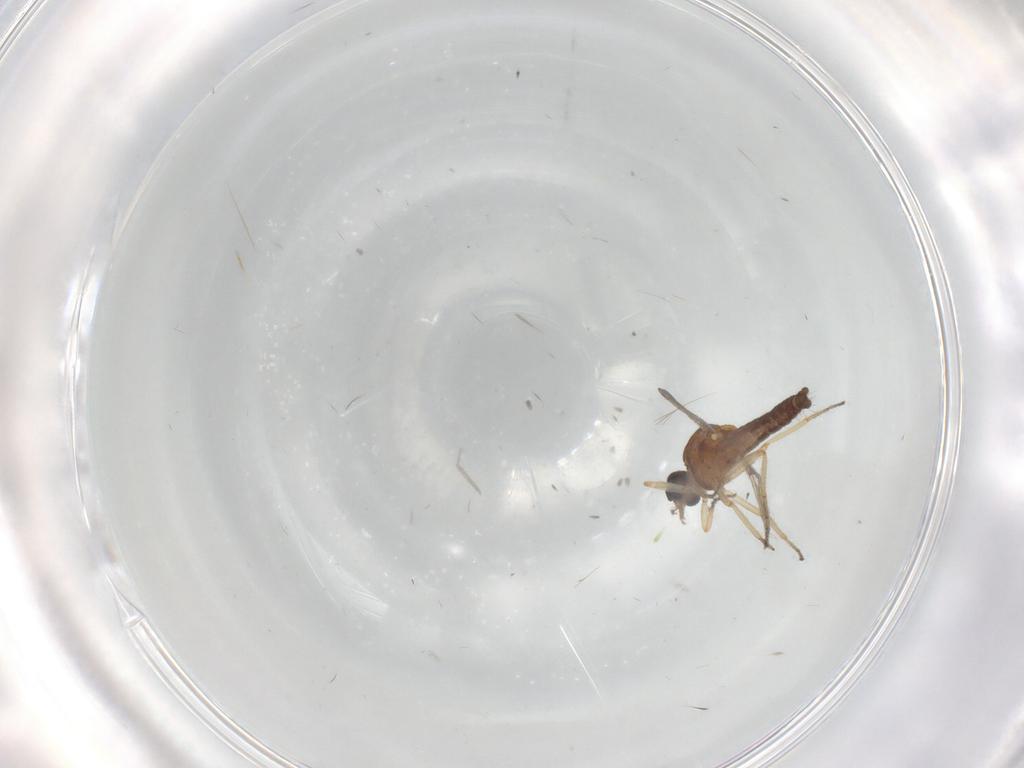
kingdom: Animalia
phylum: Arthropoda
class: Insecta
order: Diptera
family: Ceratopogonidae
